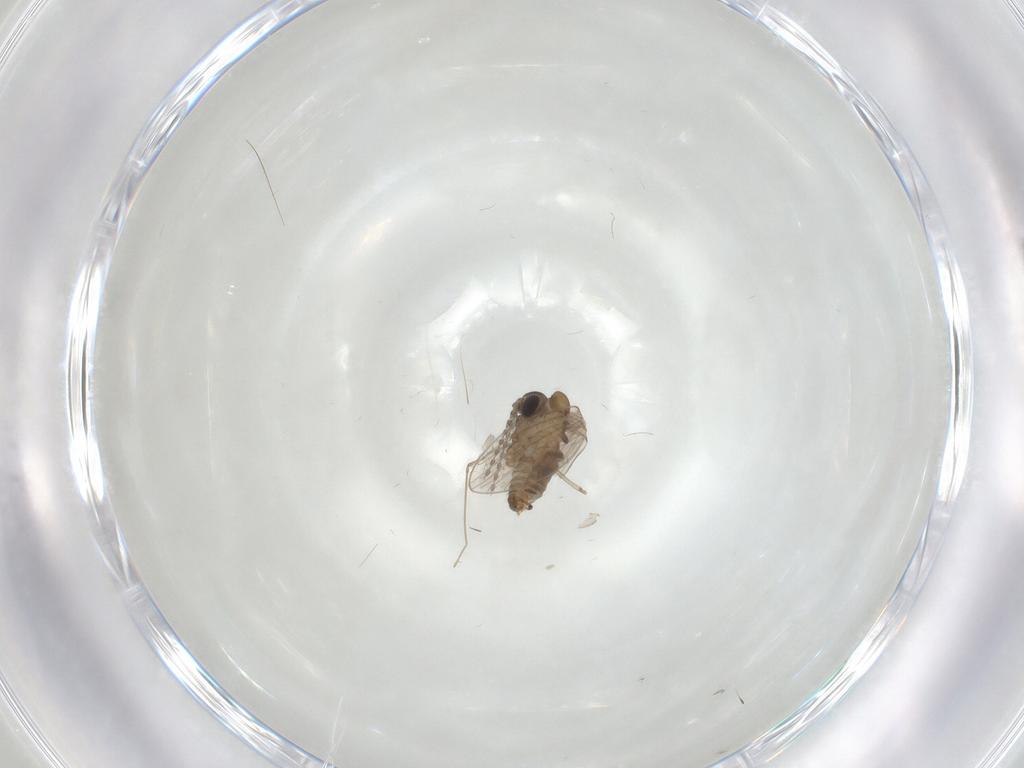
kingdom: Animalia
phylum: Arthropoda
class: Insecta
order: Diptera
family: Psychodidae
